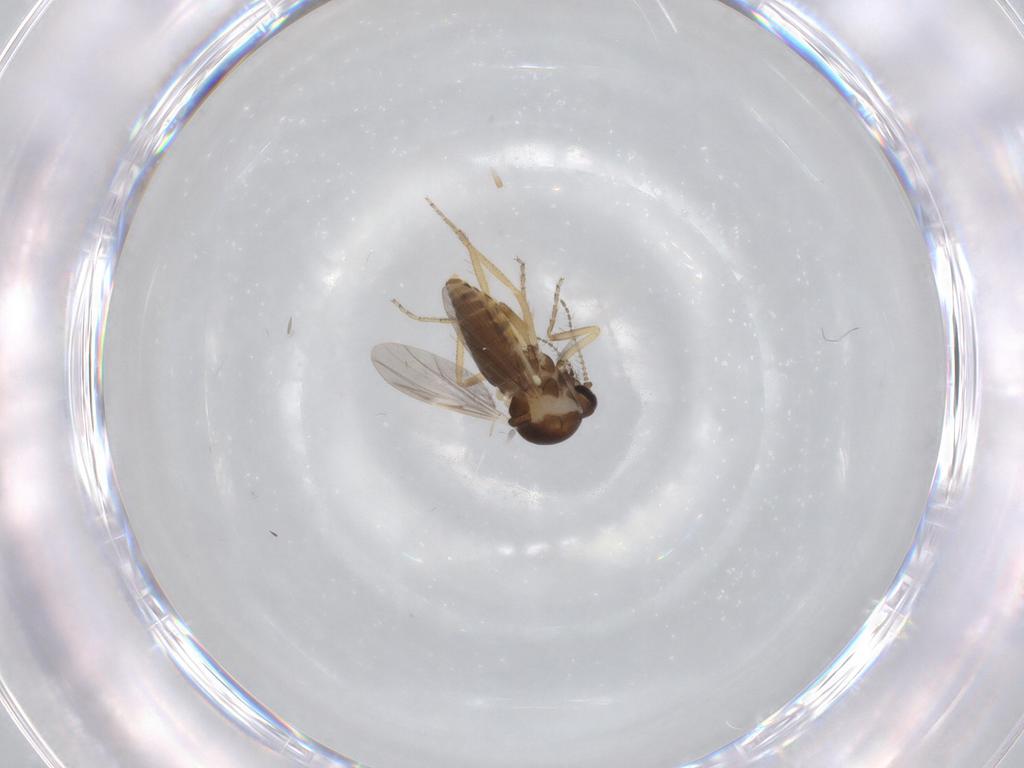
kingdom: Animalia
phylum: Arthropoda
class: Insecta
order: Diptera
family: Ceratopogonidae
